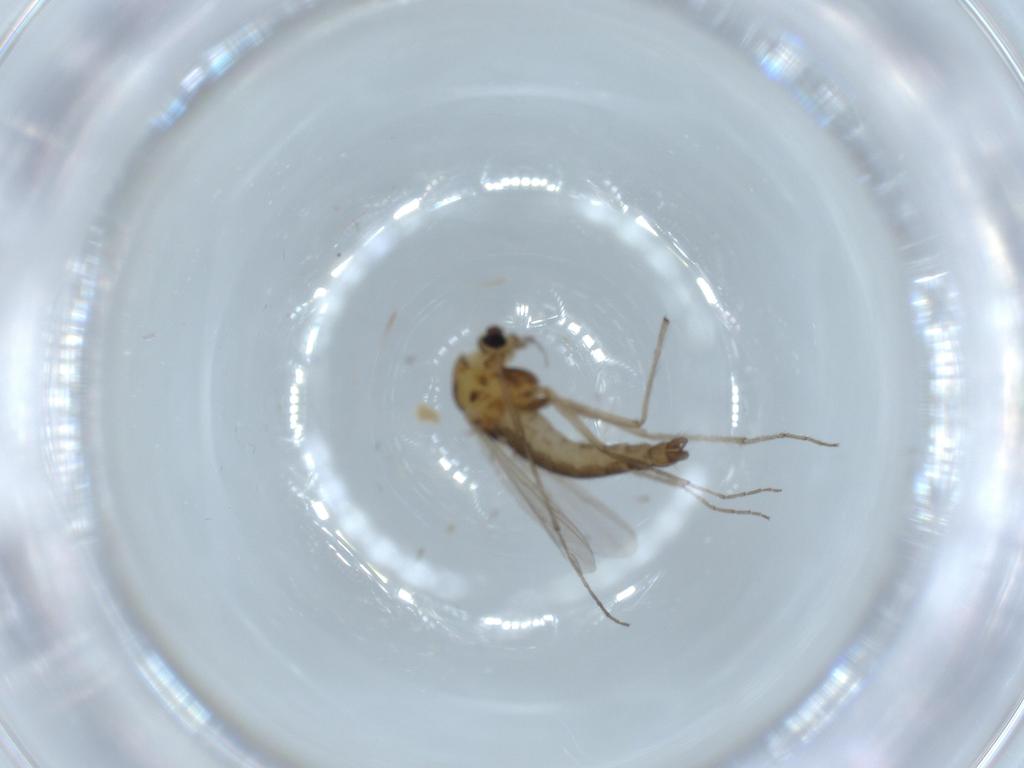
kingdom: Animalia
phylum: Arthropoda
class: Insecta
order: Diptera
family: Chironomidae
